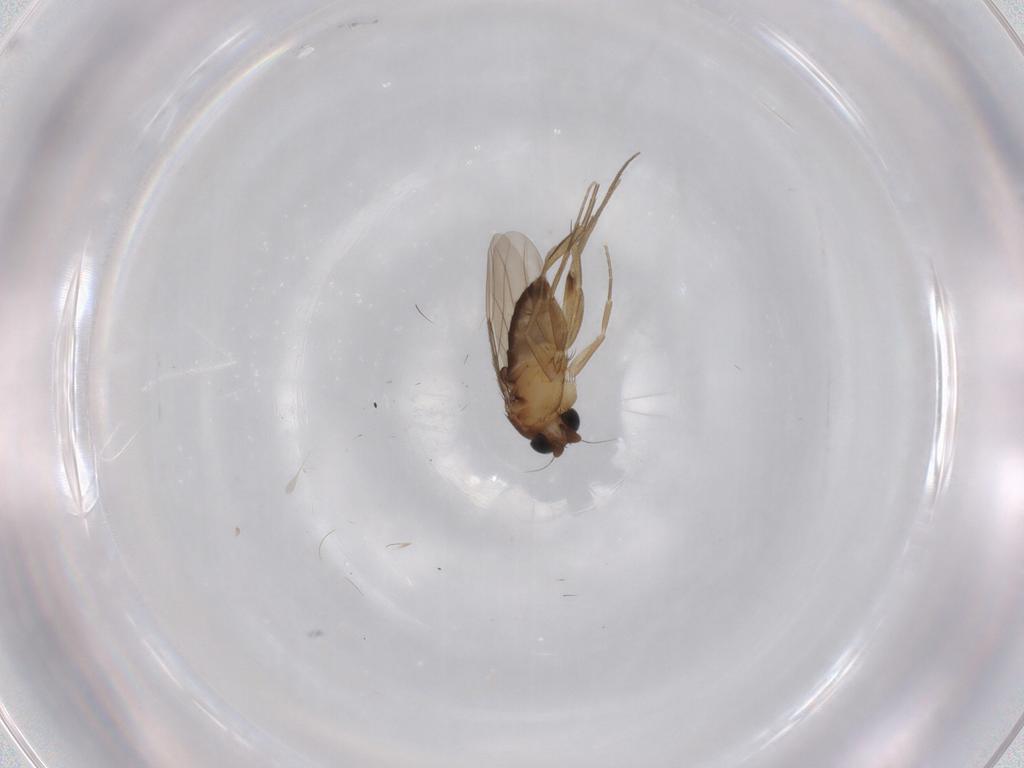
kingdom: Animalia
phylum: Arthropoda
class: Insecta
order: Diptera
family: Phoridae
